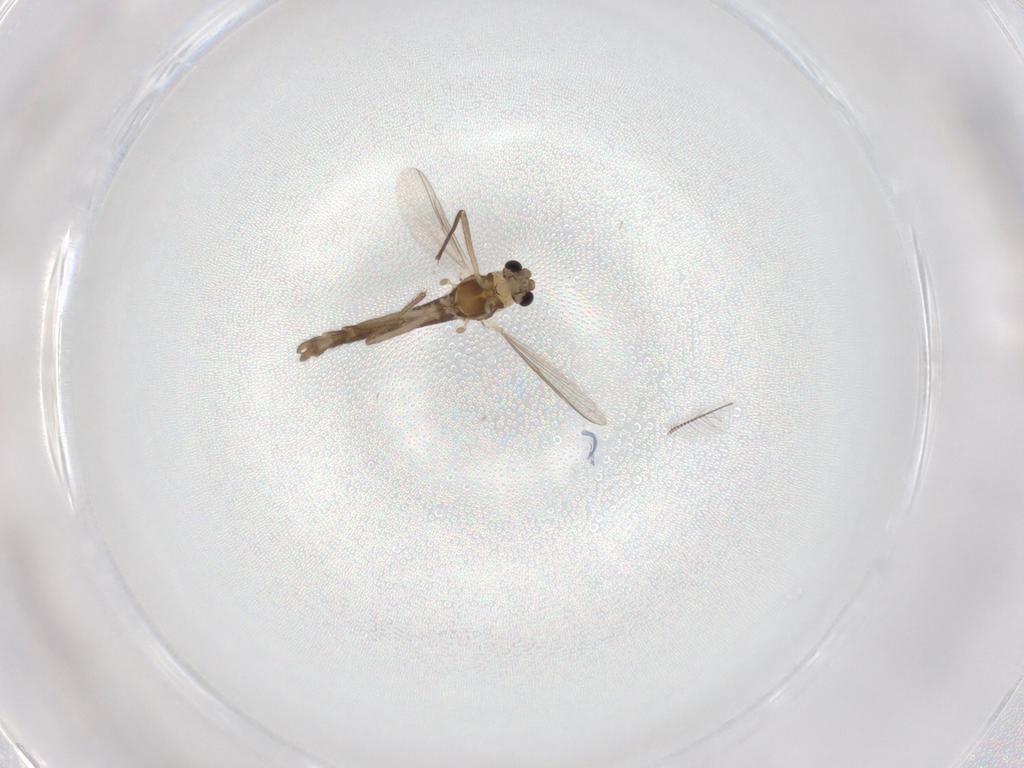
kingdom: Animalia
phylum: Arthropoda
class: Insecta
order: Diptera
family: Chironomidae
